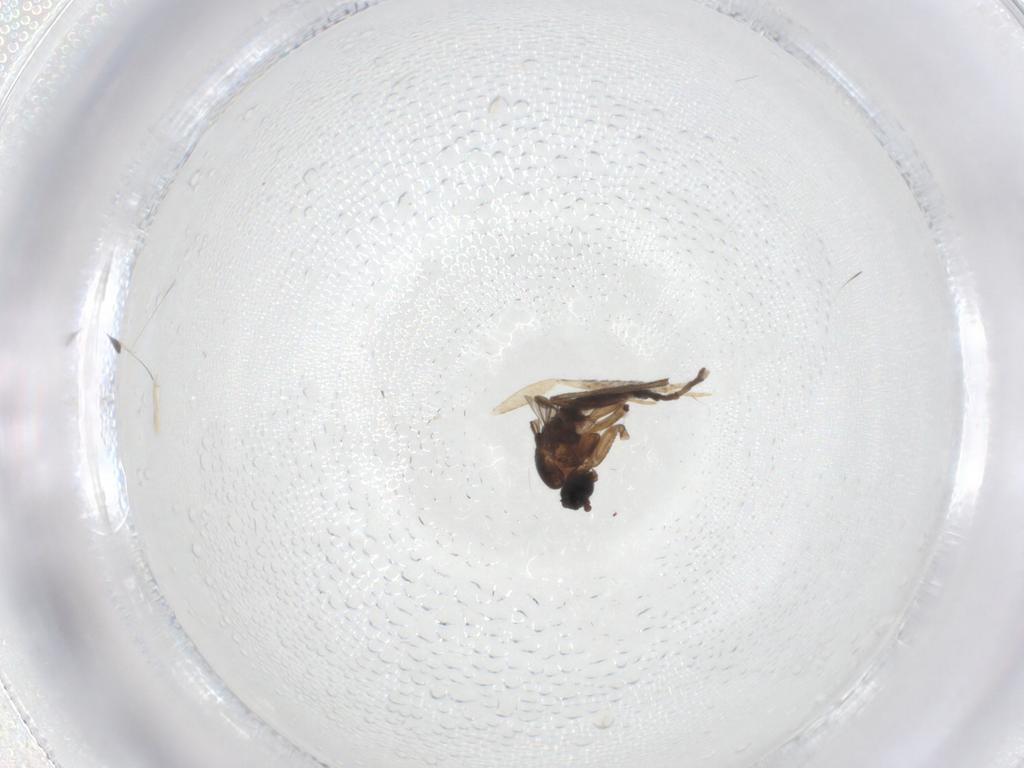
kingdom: Animalia
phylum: Arthropoda
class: Insecta
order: Diptera
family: Sciaridae
